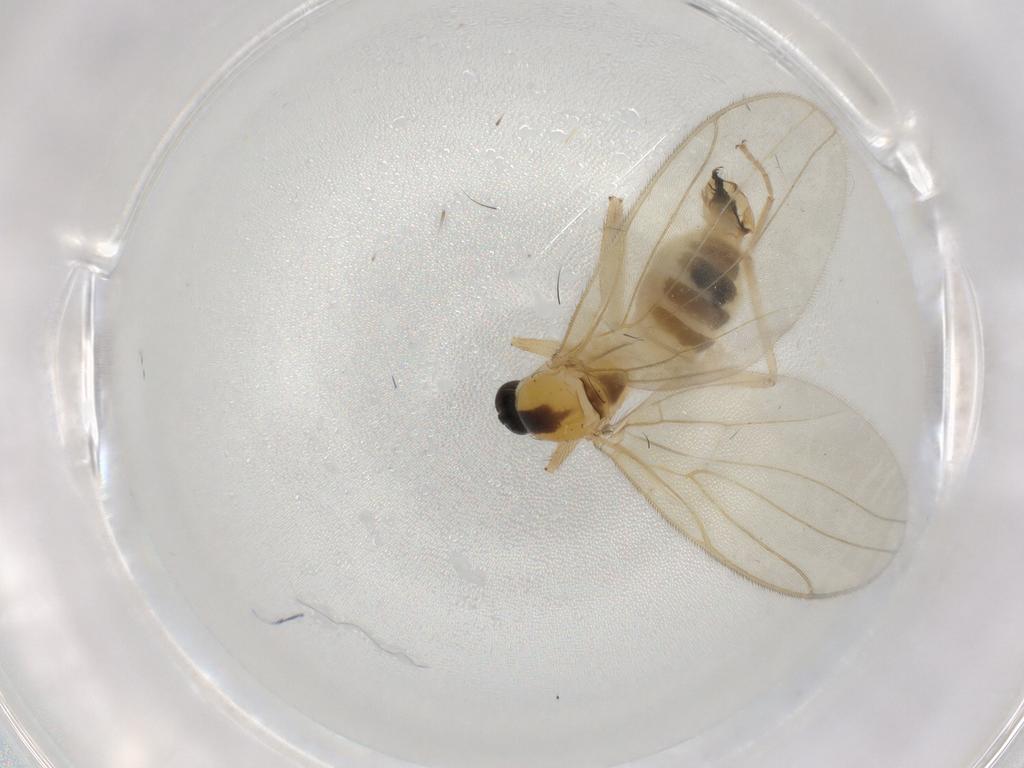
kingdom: Animalia
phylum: Arthropoda
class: Insecta
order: Diptera
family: Hybotidae
